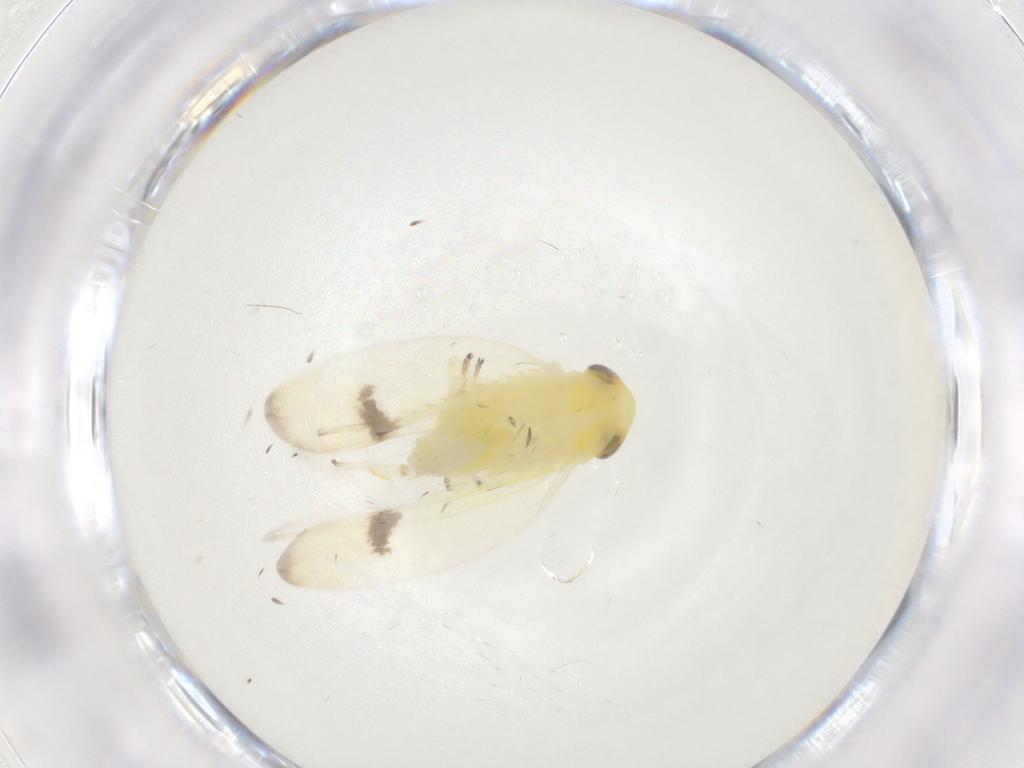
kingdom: Animalia
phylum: Arthropoda
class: Insecta
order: Hemiptera
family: Cicadellidae
